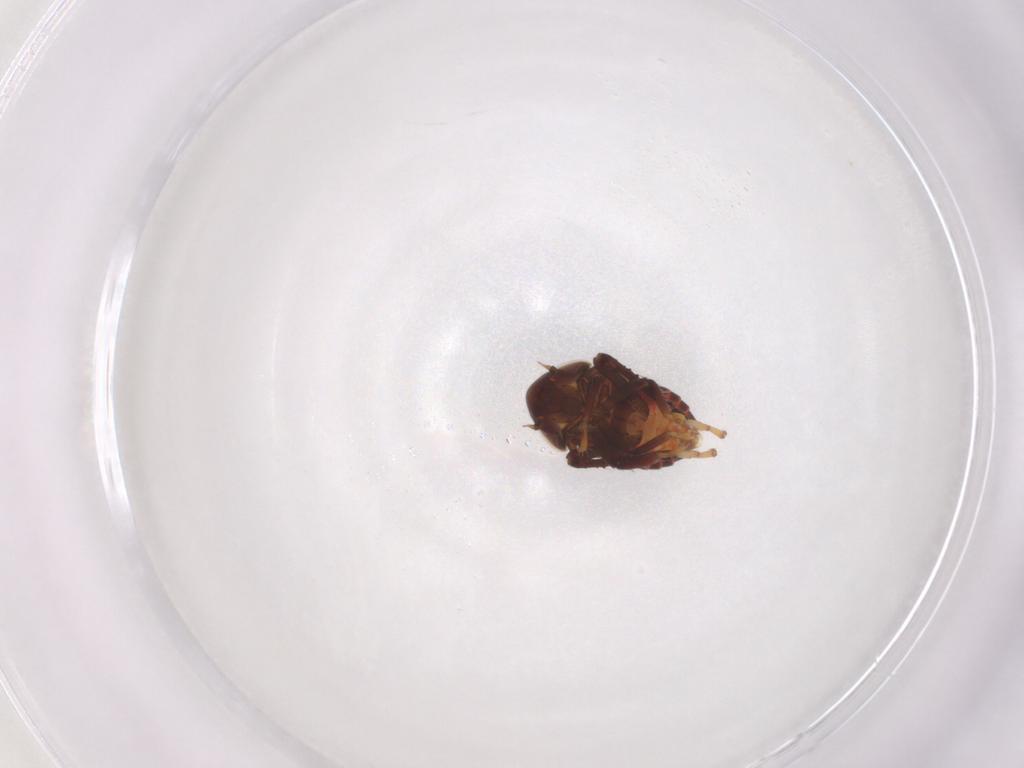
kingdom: Animalia
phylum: Arthropoda
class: Insecta
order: Hemiptera
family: Cicadellidae
